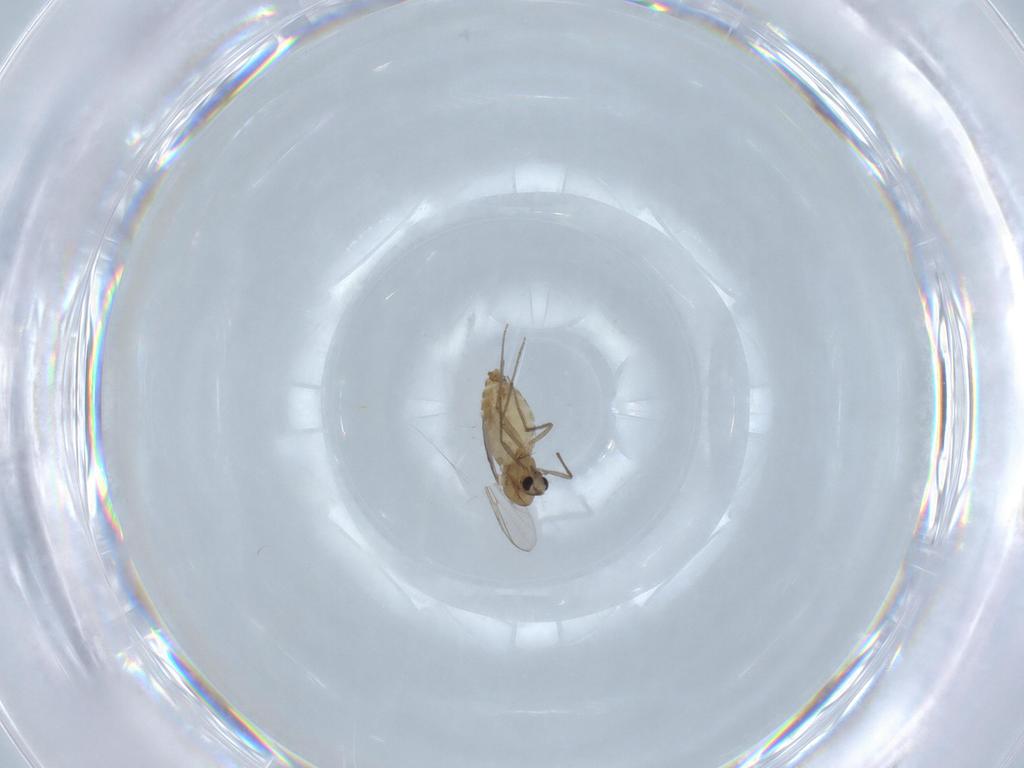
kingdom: Animalia
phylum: Arthropoda
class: Insecta
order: Diptera
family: Chironomidae
